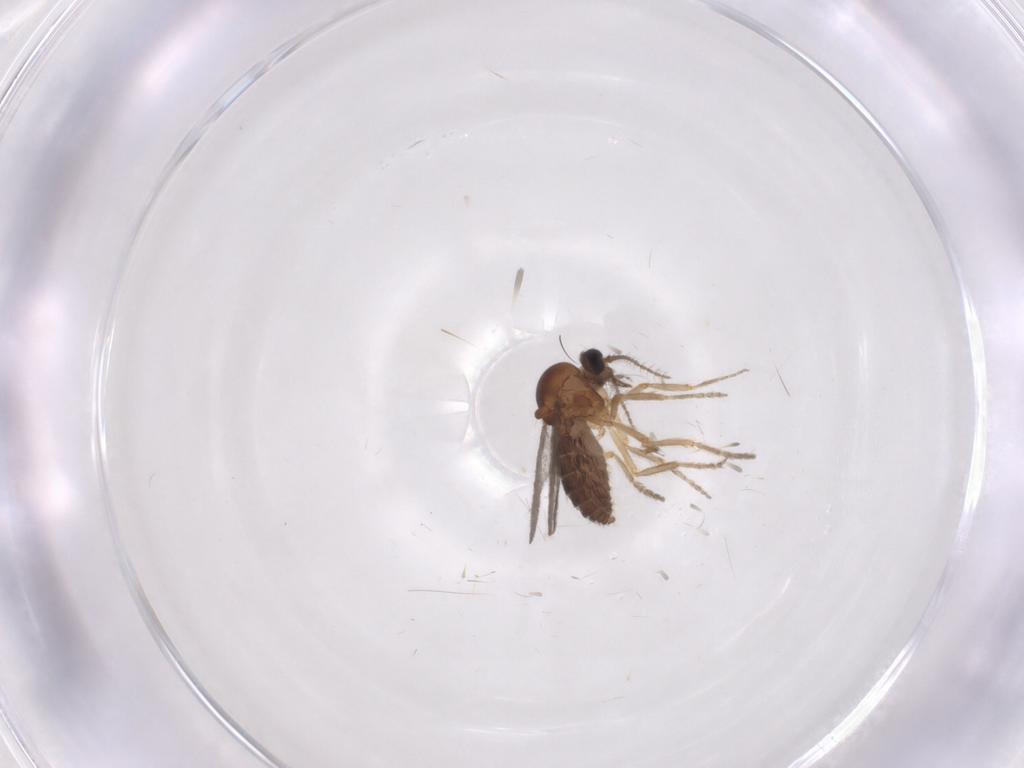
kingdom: Animalia
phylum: Arthropoda
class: Insecta
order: Diptera
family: Ceratopogonidae
